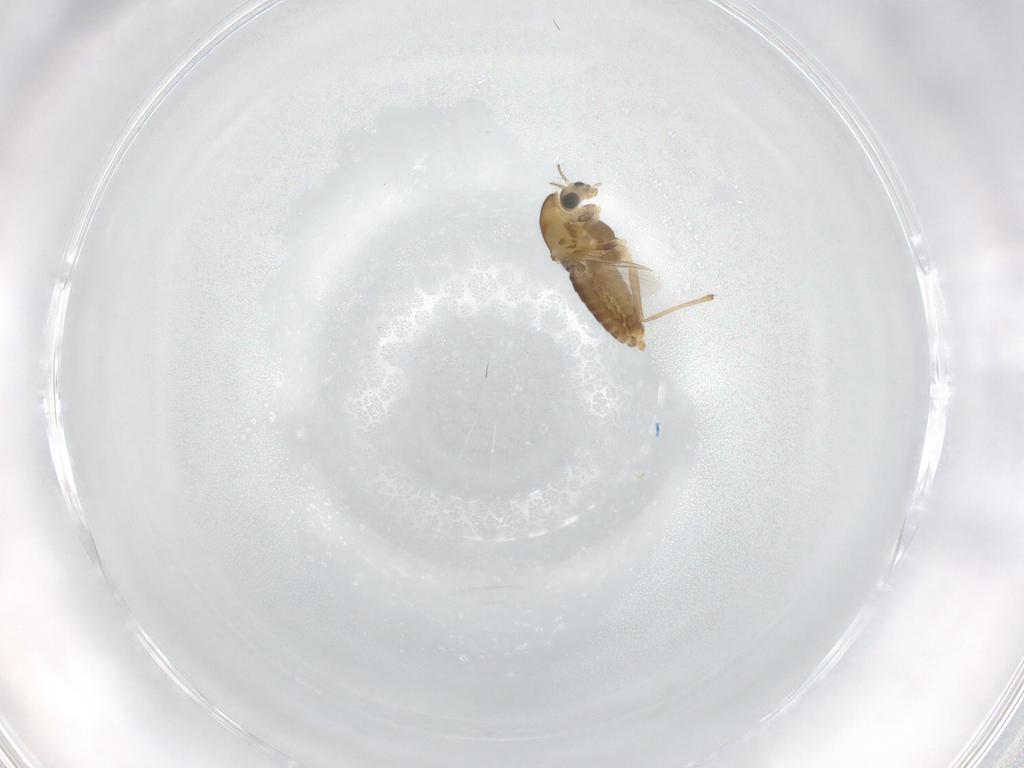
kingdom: Animalia
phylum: Arthropoda
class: Insecta
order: Diptera
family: Chironomidae
